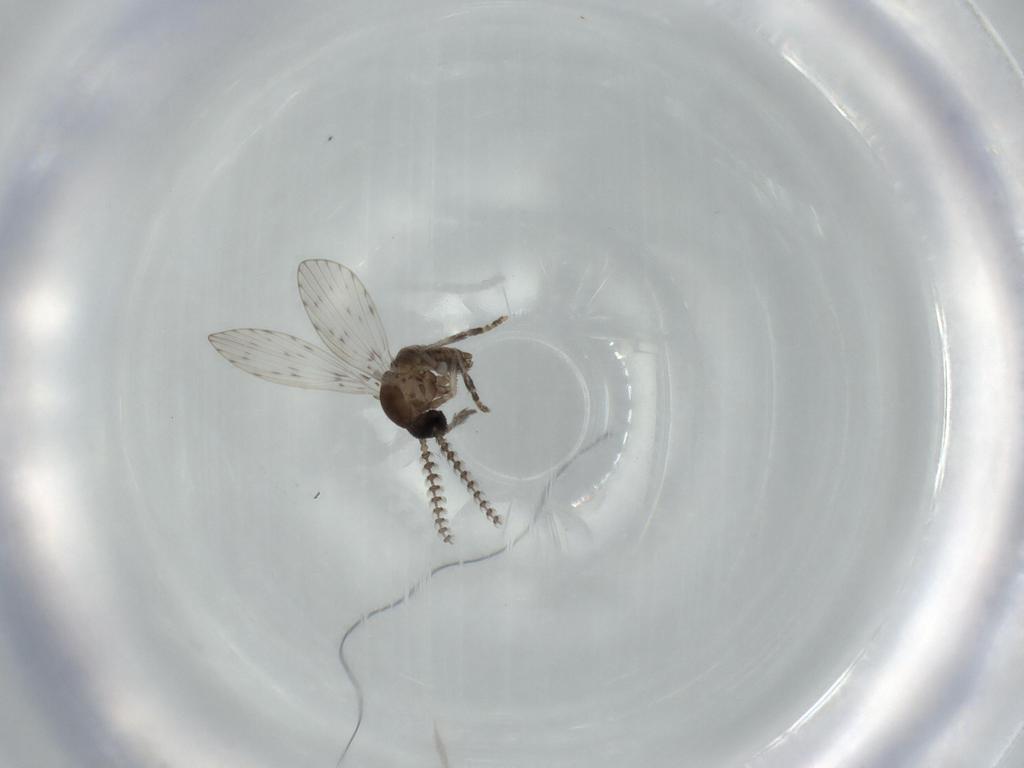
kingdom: Animalia
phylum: Arthropoda
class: Insecta
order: Diptera
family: Psychodidae
